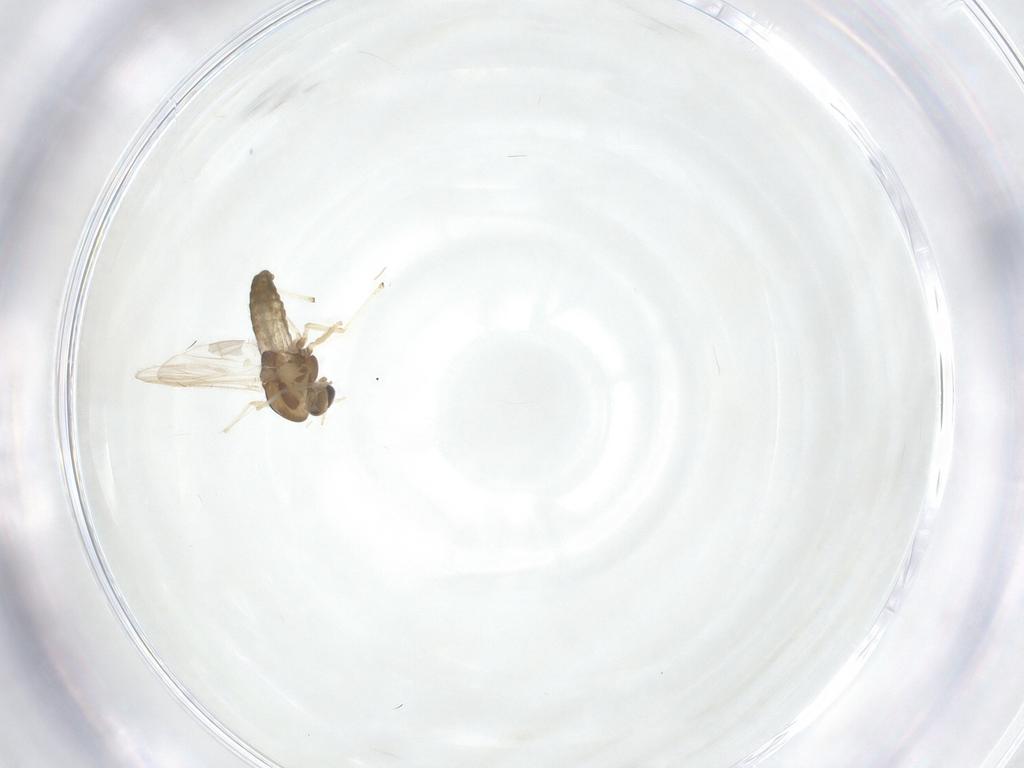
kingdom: Animalia
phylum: Arthropoda
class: Insecta
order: Diptera
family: Chironomidae
